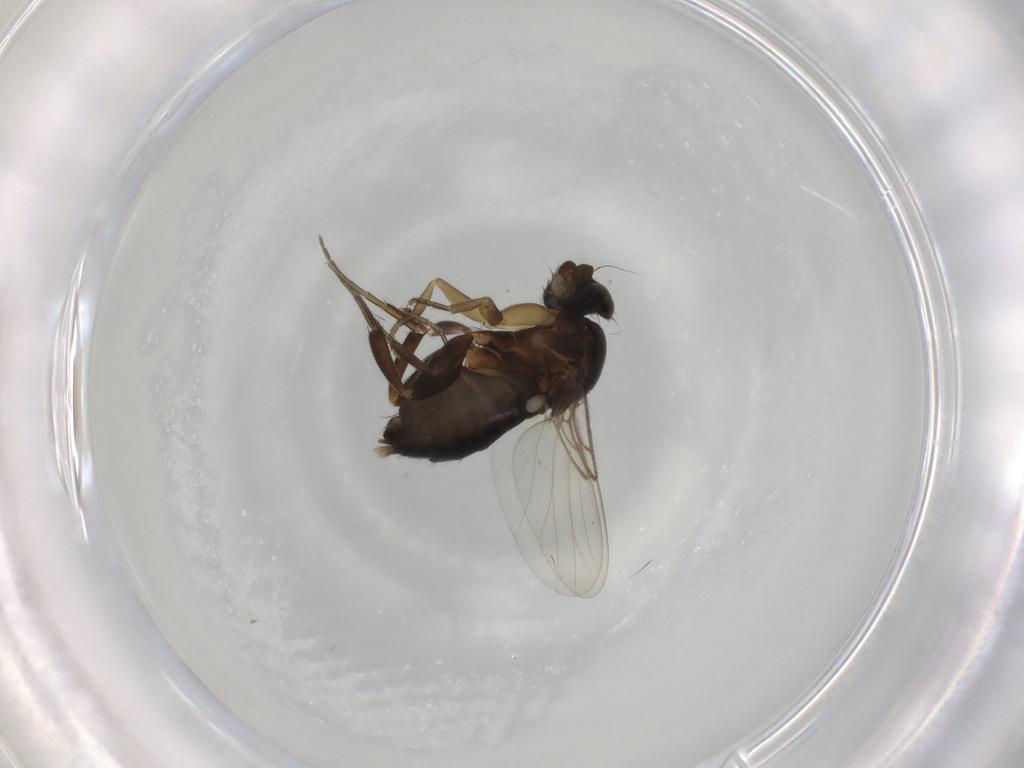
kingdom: Animalia
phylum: Arthropoda
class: Insecta
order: Diptera
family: Phoridae
